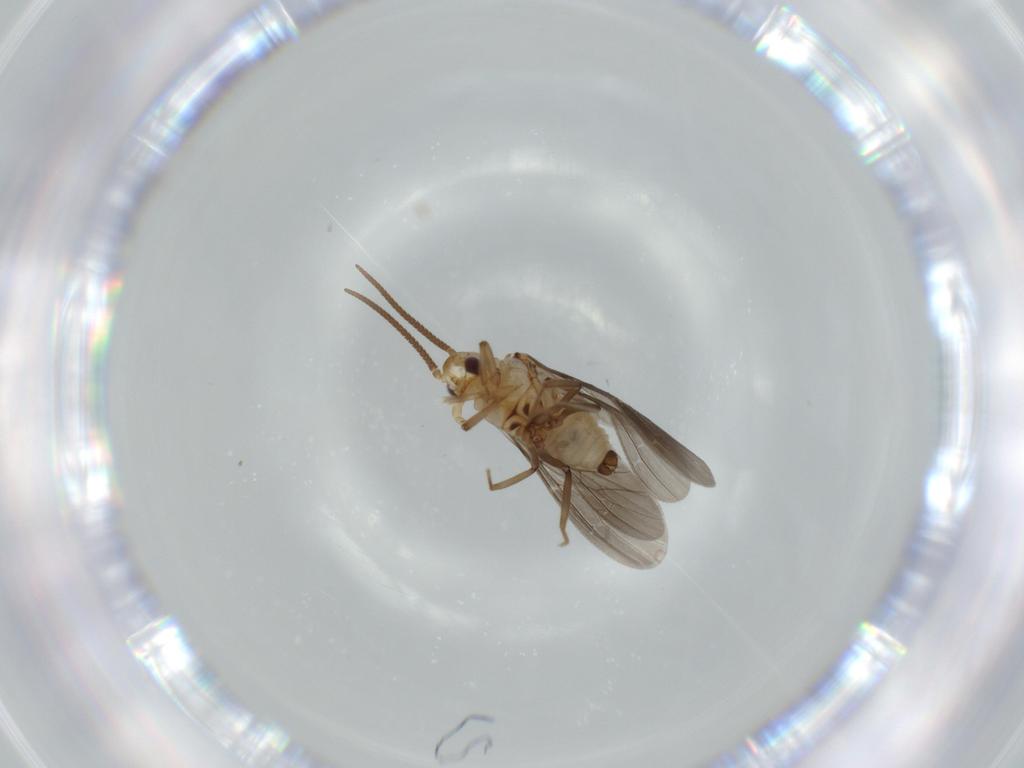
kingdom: Animalia
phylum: Arthropoda
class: Insecta
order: Neuroptera
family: Coniopterygidae
